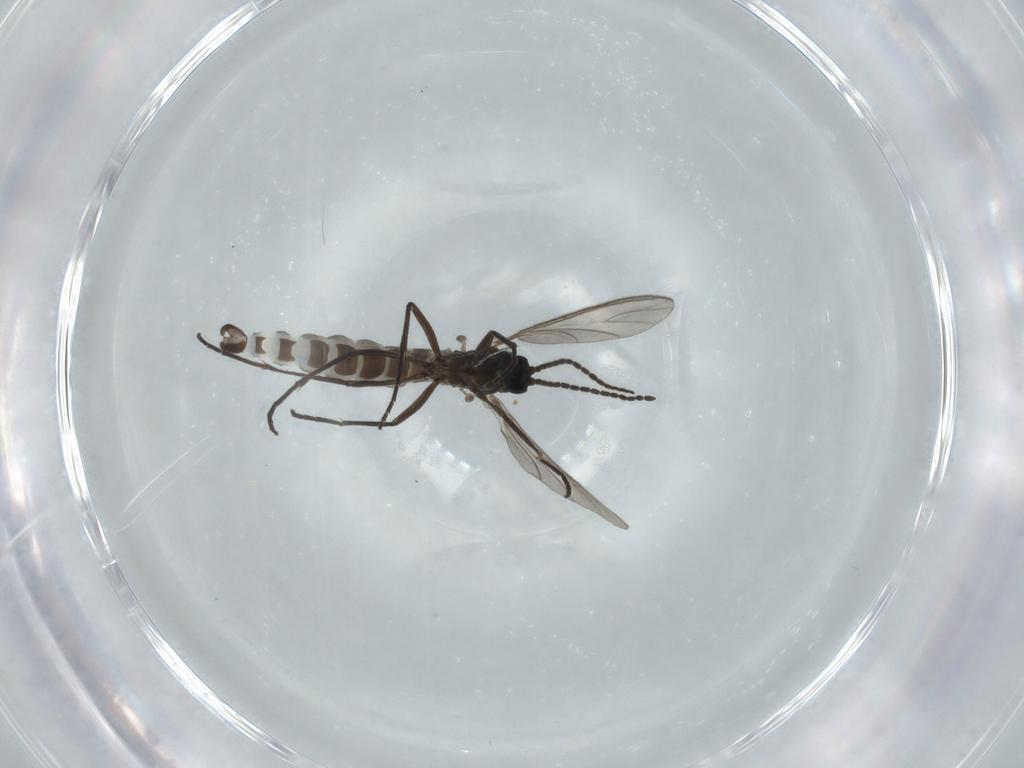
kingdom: Animalia
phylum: Arthropoda
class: Insecta
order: Diptera
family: Sciaridae
